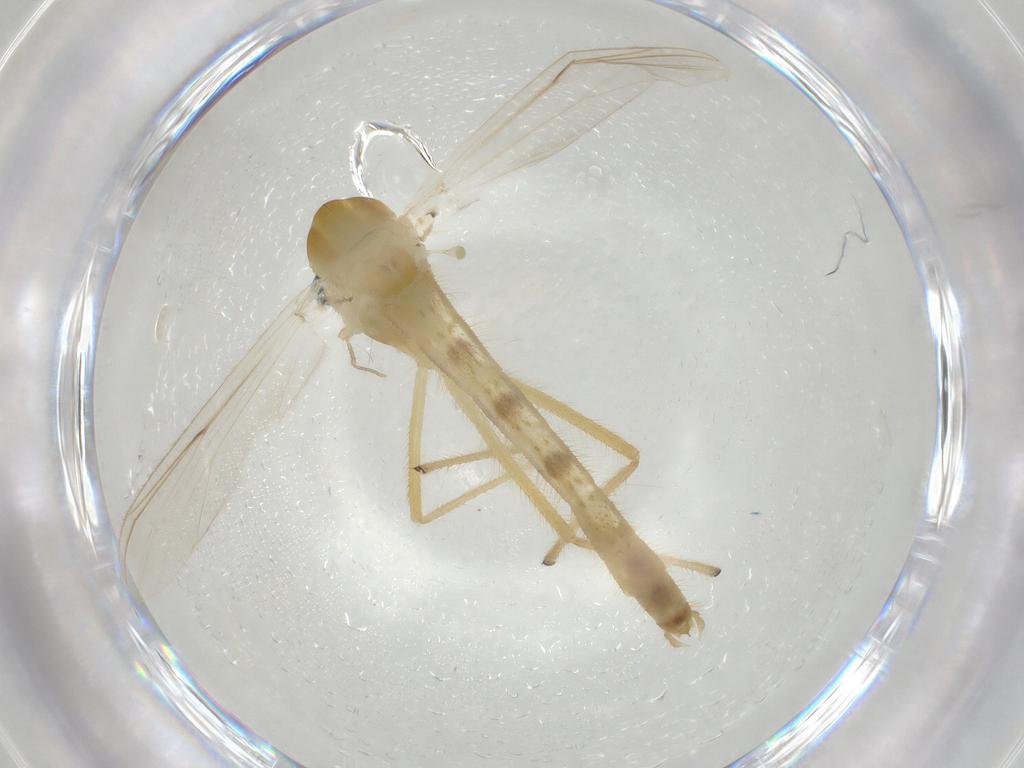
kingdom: Animalia
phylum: Arthropoda
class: Insecta
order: Diptera
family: Chironomidae
